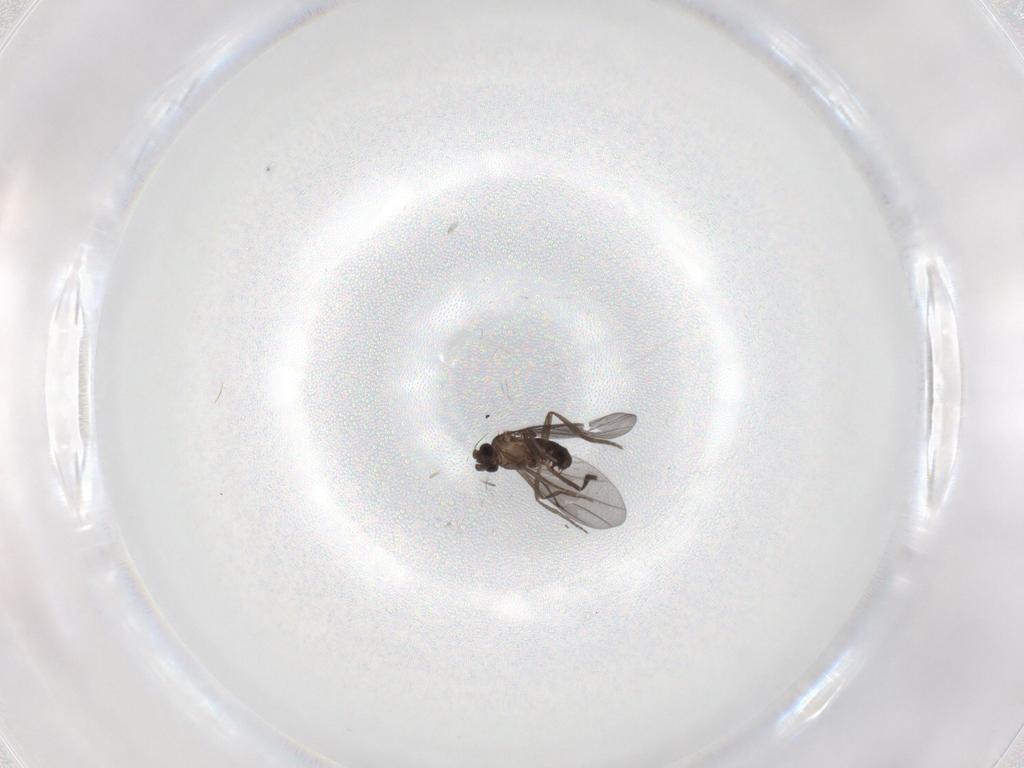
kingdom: Animalia
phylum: Arthropoda
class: Insecta
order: Diptera
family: Phoridae
